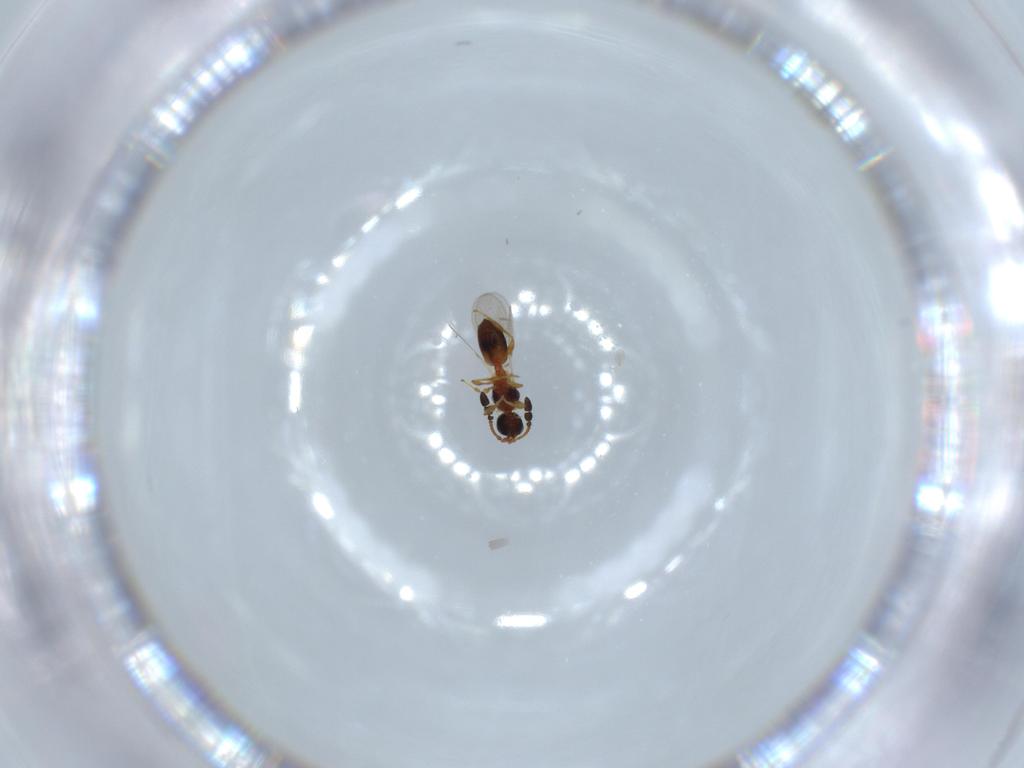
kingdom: Animalia
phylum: Arthropoda
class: Insecta
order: Hymenoptera
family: Diapriidae
